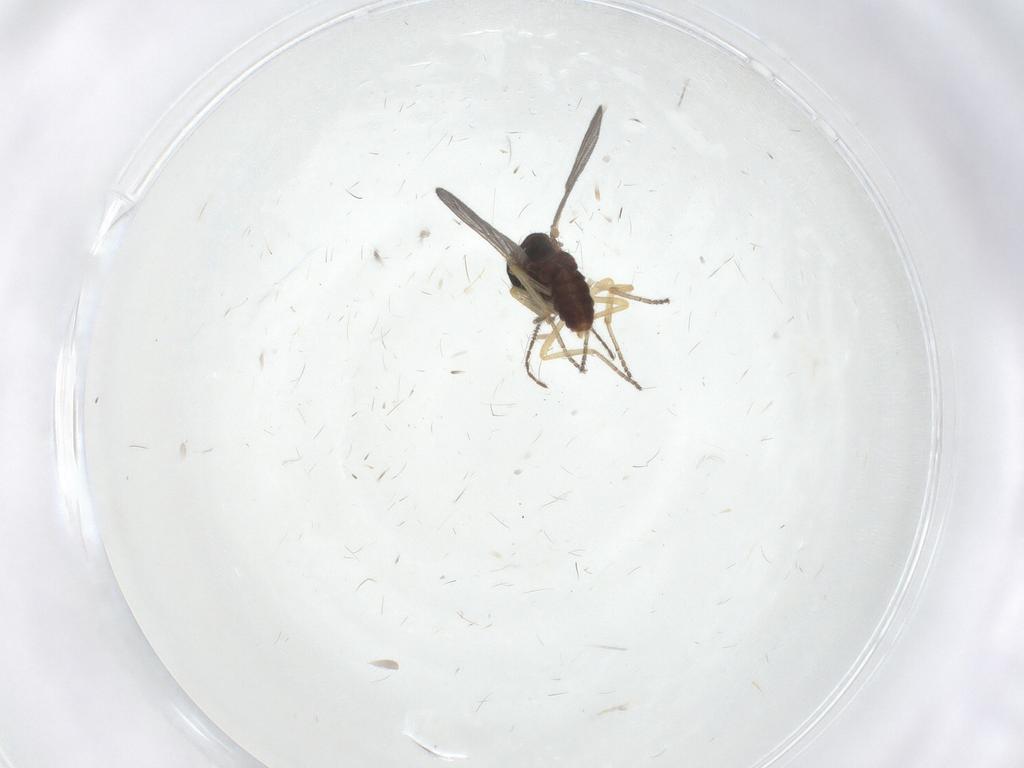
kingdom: Animalia
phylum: Arthropoda
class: Insecta
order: Diptera
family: Ceratopogonidae
